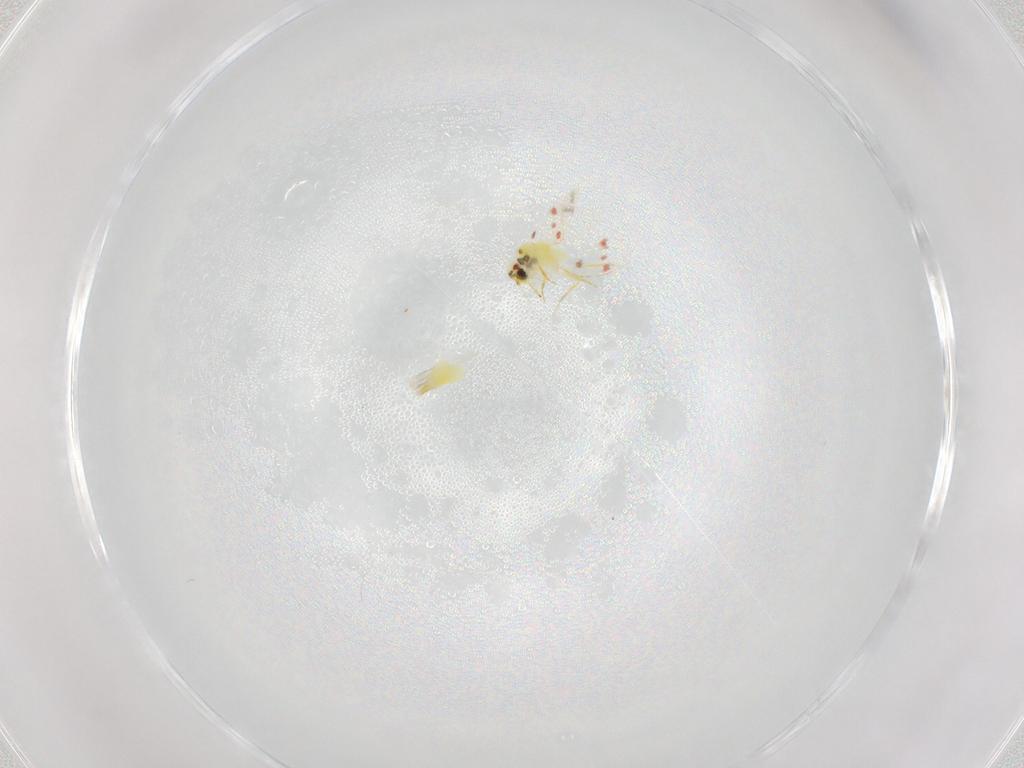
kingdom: Animalia
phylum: Arthropoda
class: Insecta
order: Hemiptera
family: Aleyrodidae
